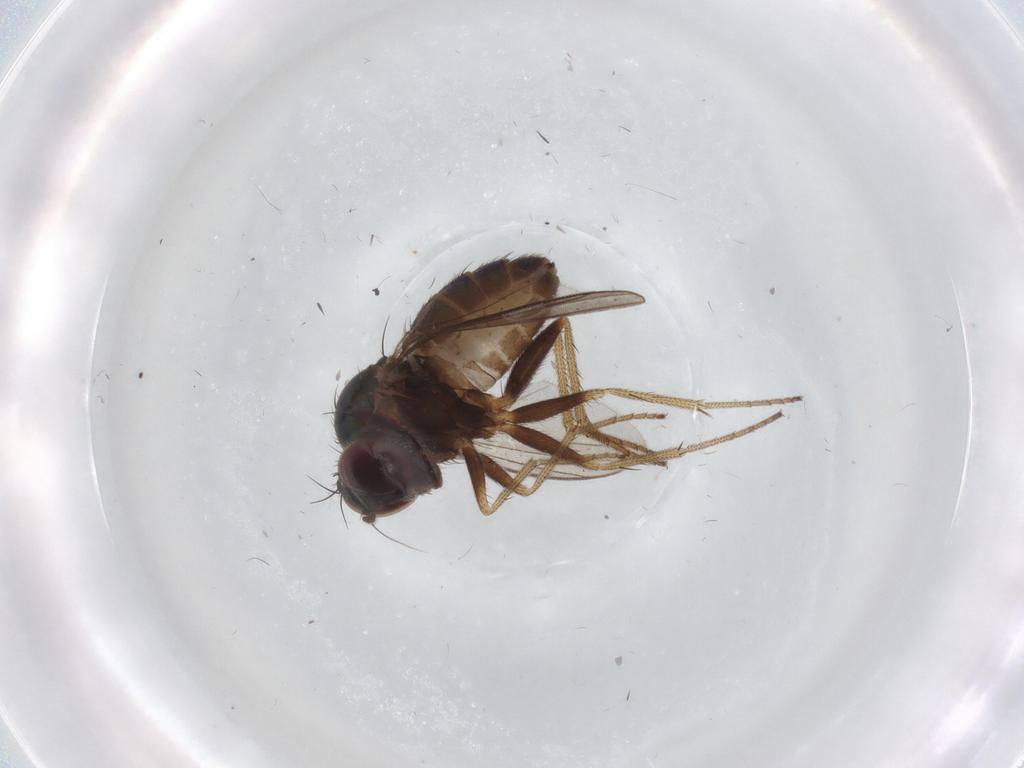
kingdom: Animalia
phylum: Arthropoda
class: Insecta
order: Diptera
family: Dolichopodidae
